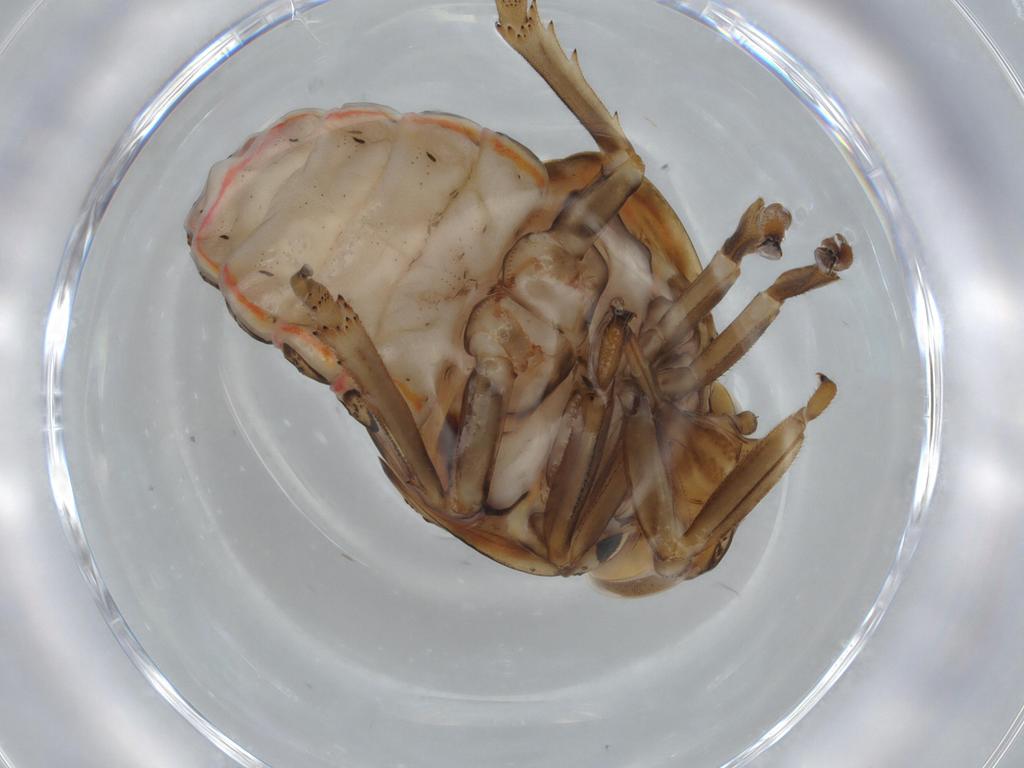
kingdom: Animalia
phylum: Arthropoda
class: Insecta
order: Hemiptera
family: Issidae
